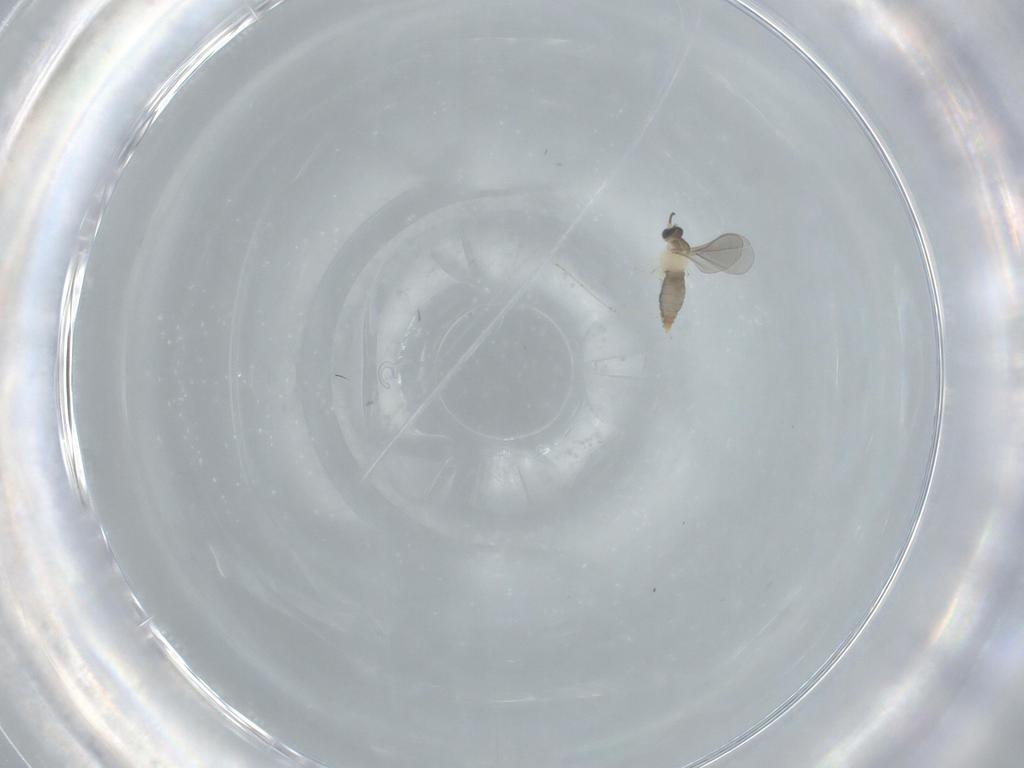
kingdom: Animalia
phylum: Arthropoda
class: Insecta
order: Diptera
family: Cecidomyiidae
